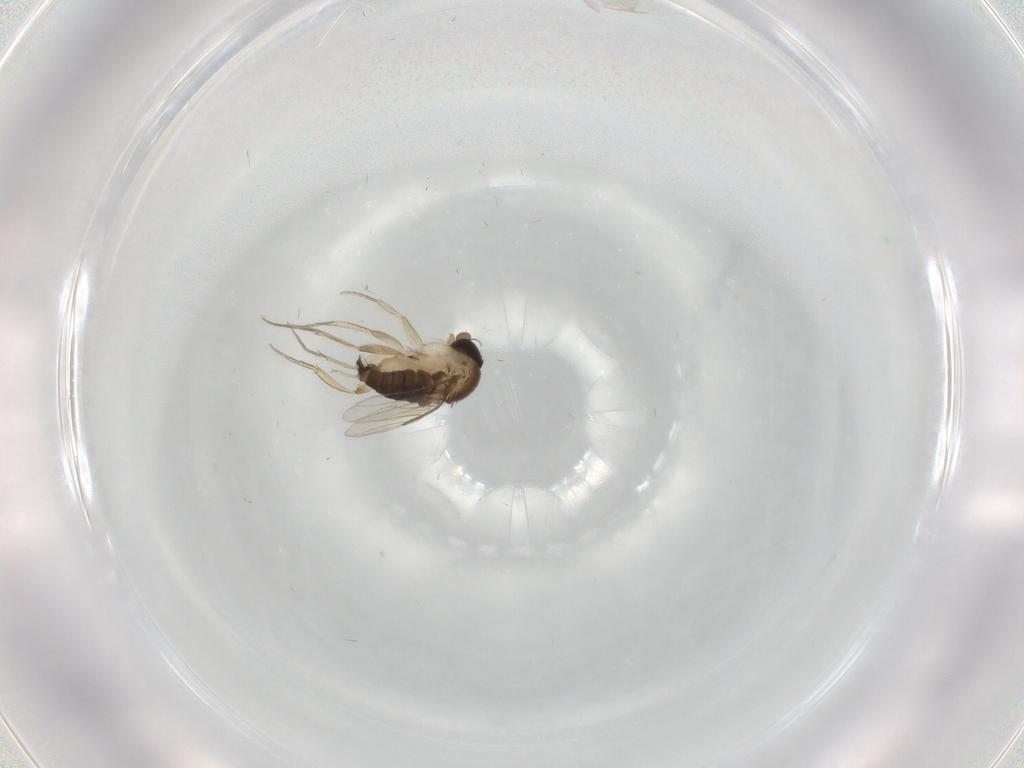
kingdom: Animalia
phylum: Arthropoda
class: Insecta
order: Diptera
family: Phoridae
